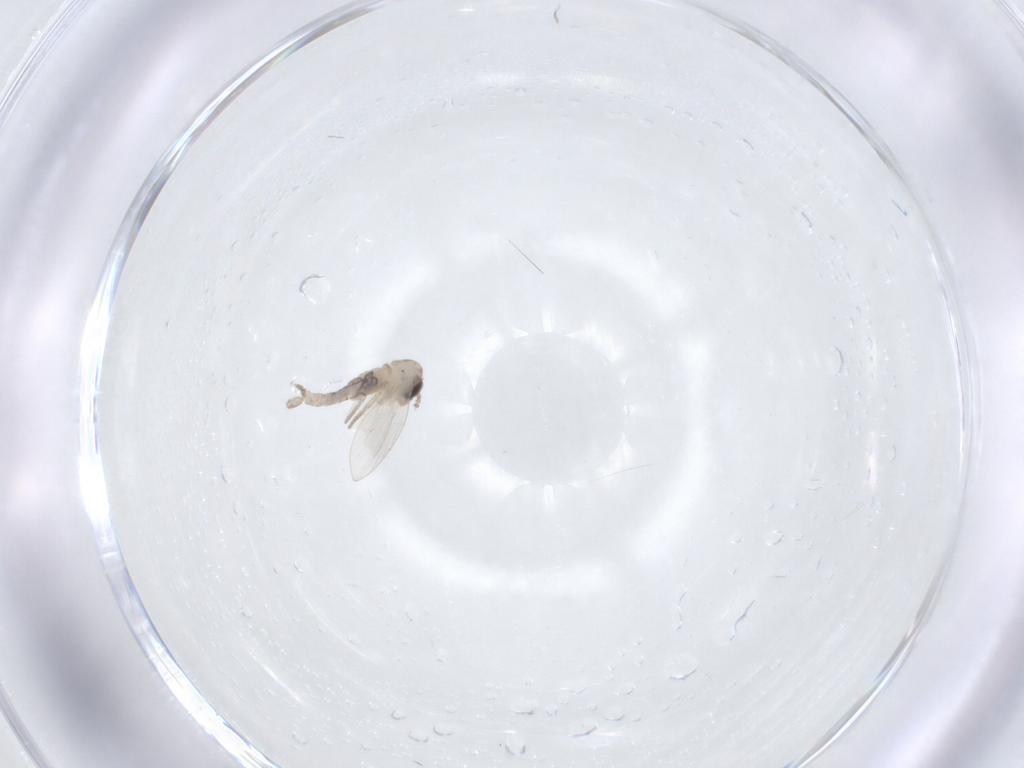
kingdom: Animalia
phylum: Arthropoda
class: Insecta
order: Diptera
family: Psychodidae
